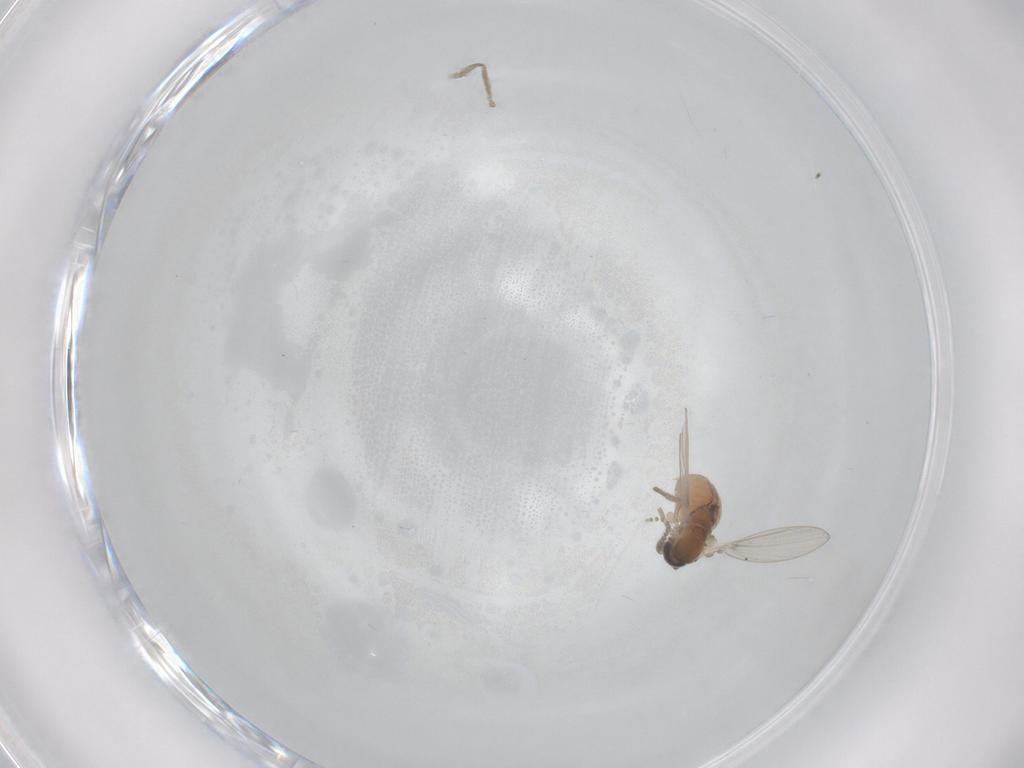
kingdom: Animalia
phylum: Arthropoda
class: Insecta
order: Diptera
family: Psychodidae
